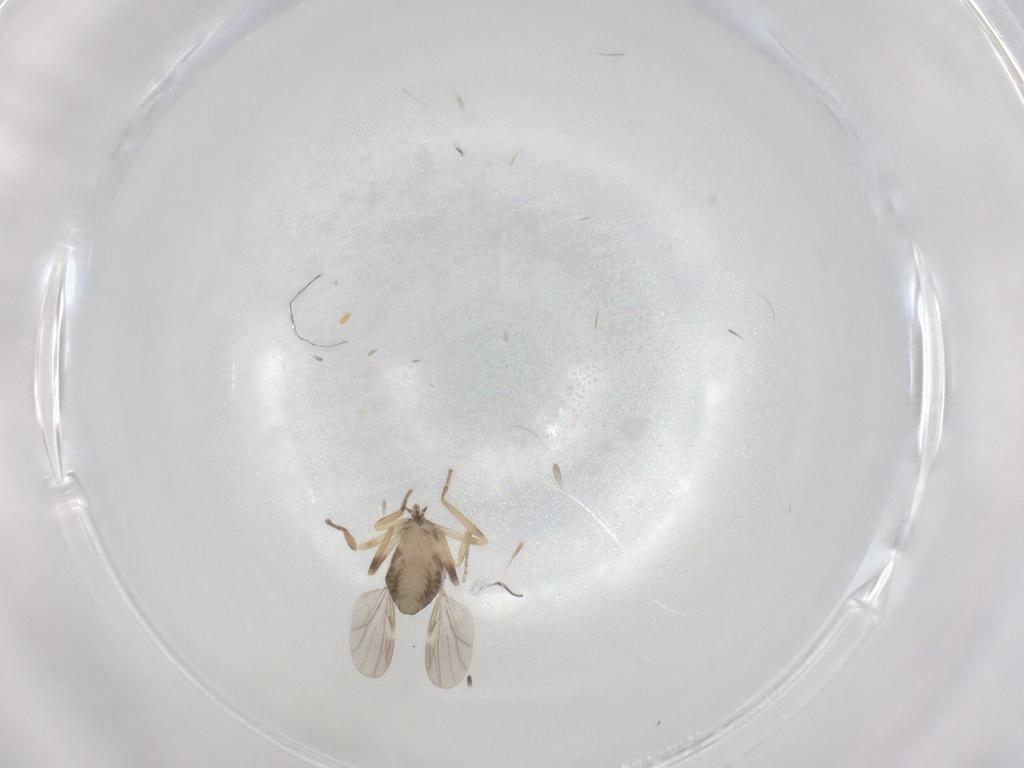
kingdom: Animalia
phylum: Arthropoda
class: Insecta
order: Diptera
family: Ceratopogonidae
